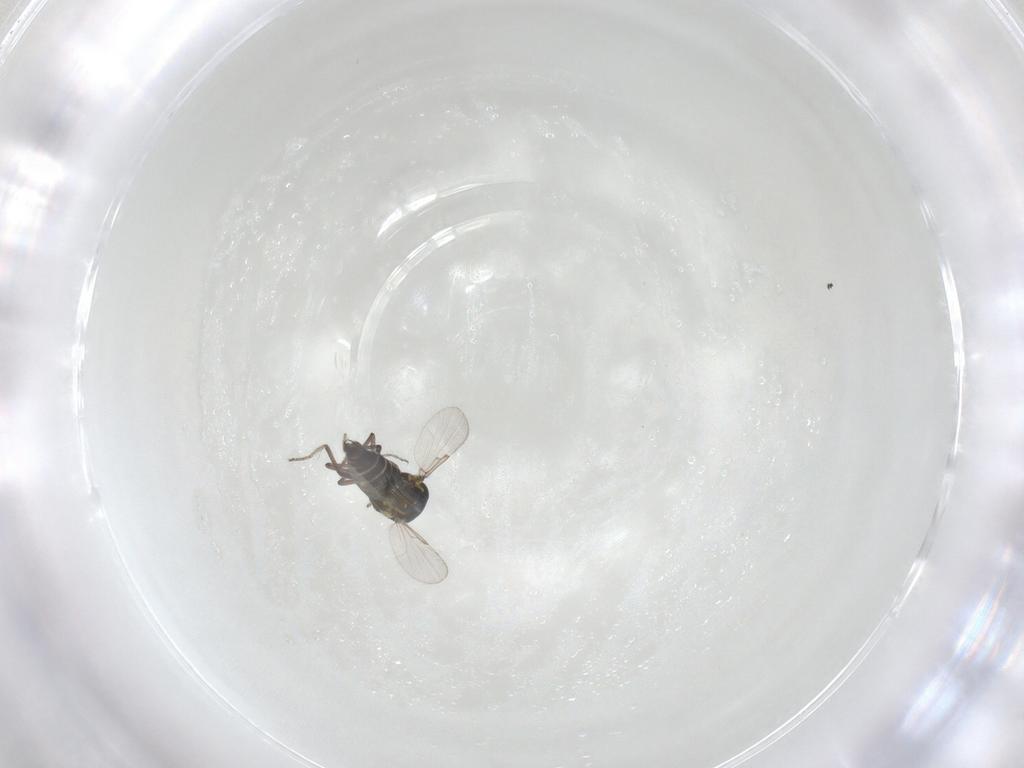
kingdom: Animalia
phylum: Arthropoda
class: Insecta
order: Diptera
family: Ceratopogonidae
